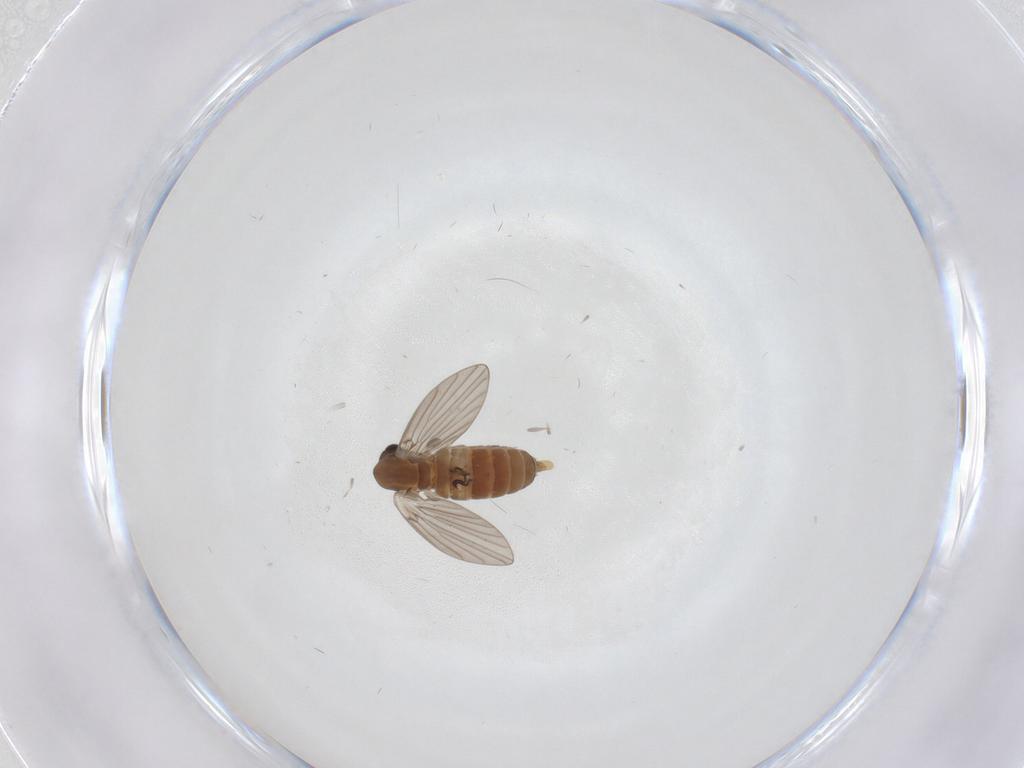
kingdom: Animalia
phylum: Arthropoda
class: Insecta
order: Diptera
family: Dolichopodidae
